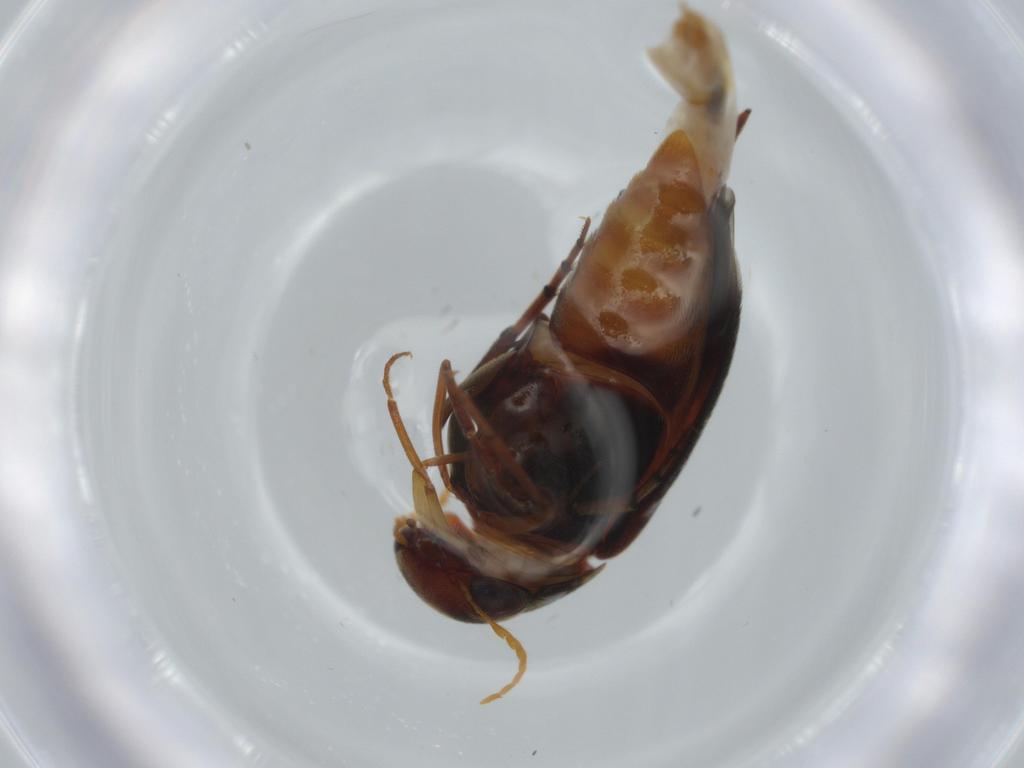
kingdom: Animalia
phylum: Arthropoda
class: Insecta
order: Coleoptera
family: Mordellidae
